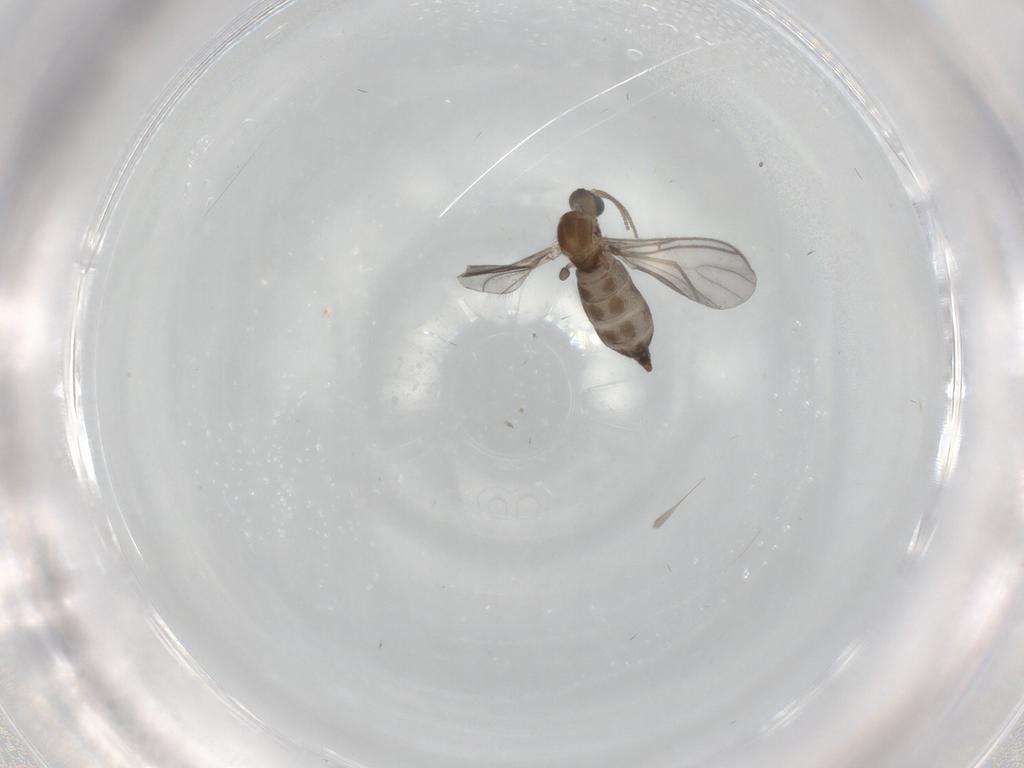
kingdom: Animalia
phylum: Arthropoda
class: Insecta
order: Diptera
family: Sciaridae
